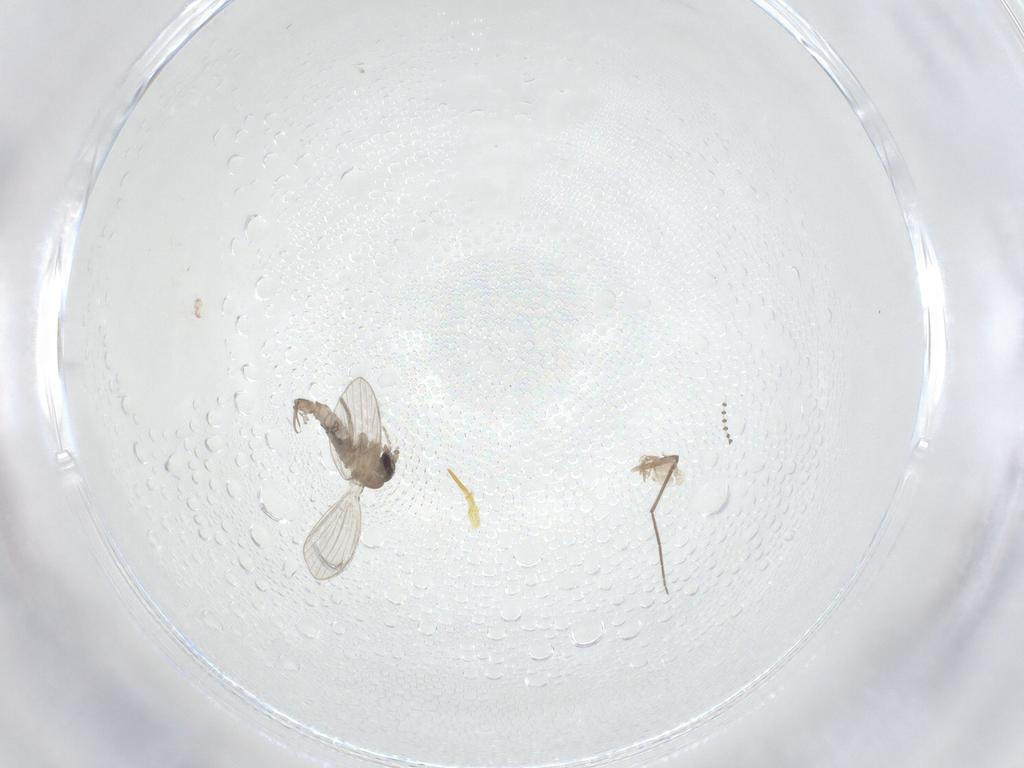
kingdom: Animalia
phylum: Arthropoda
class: Insecta
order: Diptera
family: Psychodidae
